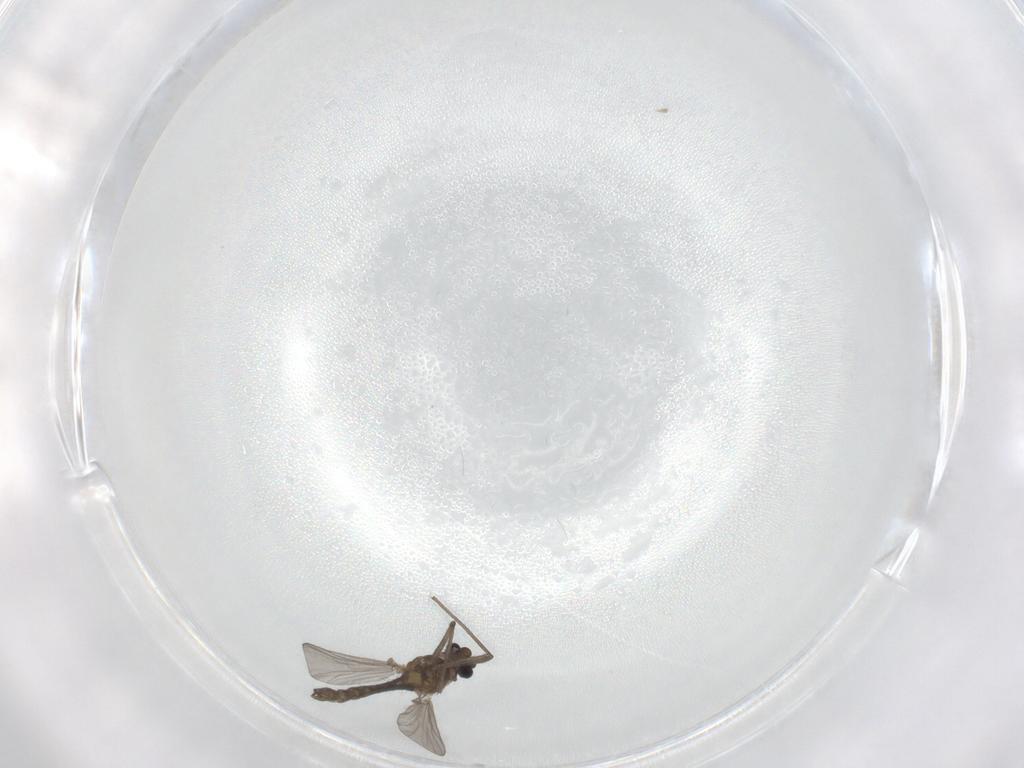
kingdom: Animalia
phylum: Arthropoda
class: Insecta
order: Diptera
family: Chironomidae
